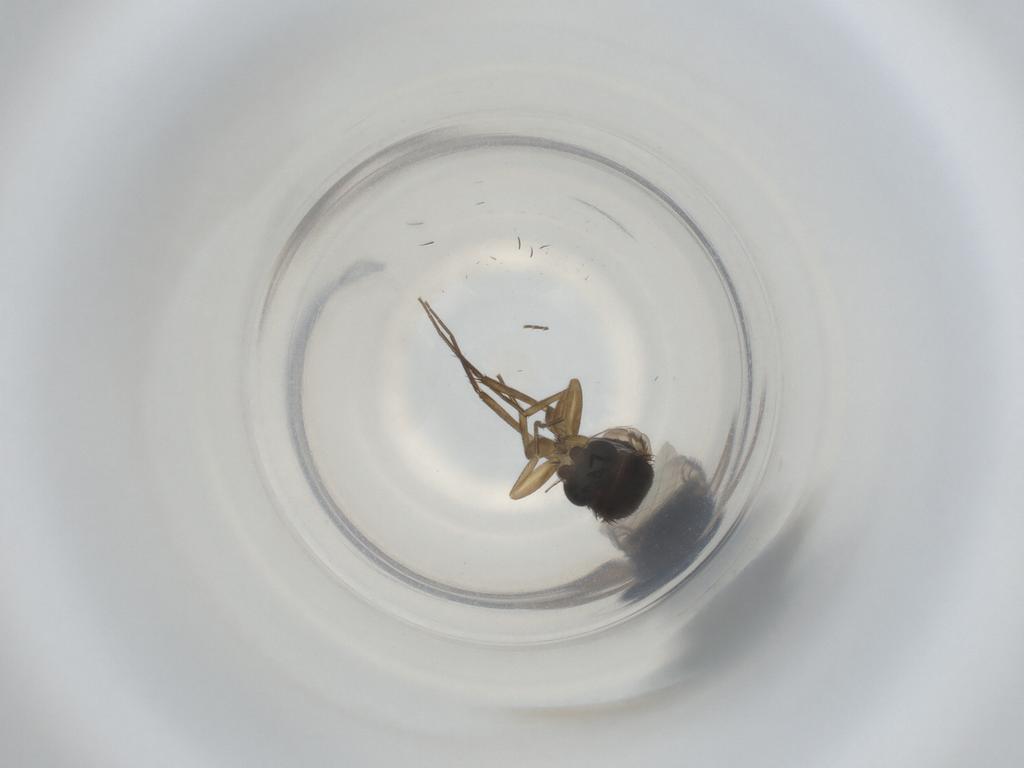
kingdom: Animalia
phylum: Arthropoda
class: Insecta
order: Diptera
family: Phoridae
